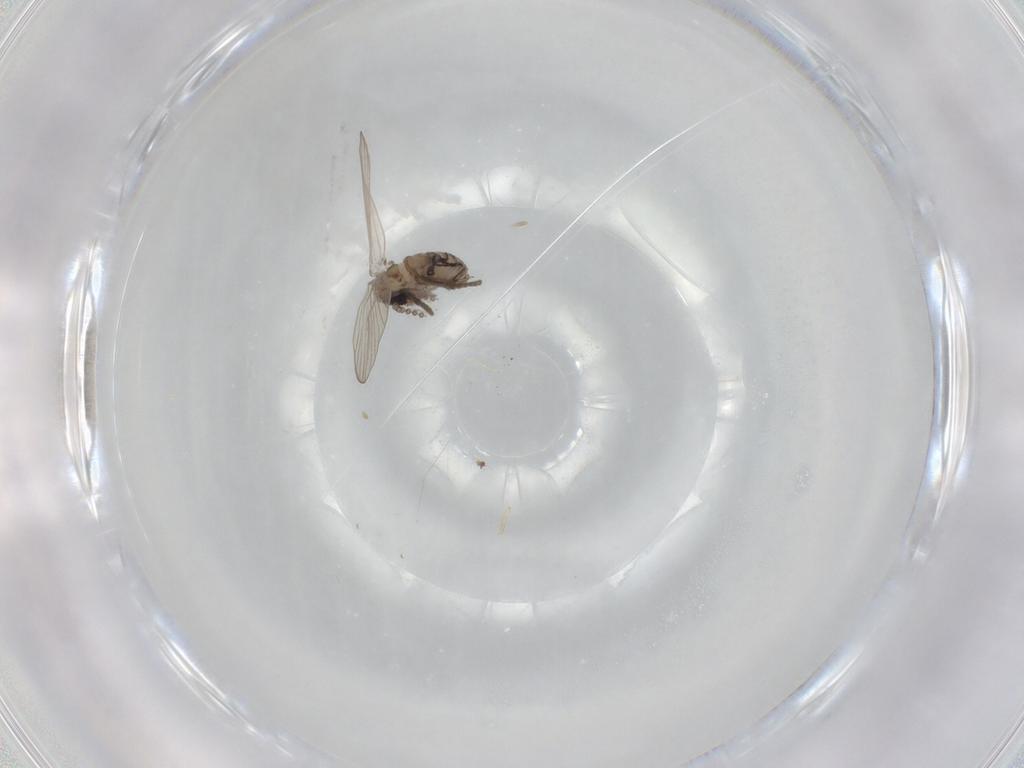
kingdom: Animalia
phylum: Arthropoda
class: Insecta
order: Diptera
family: Psychodidae
